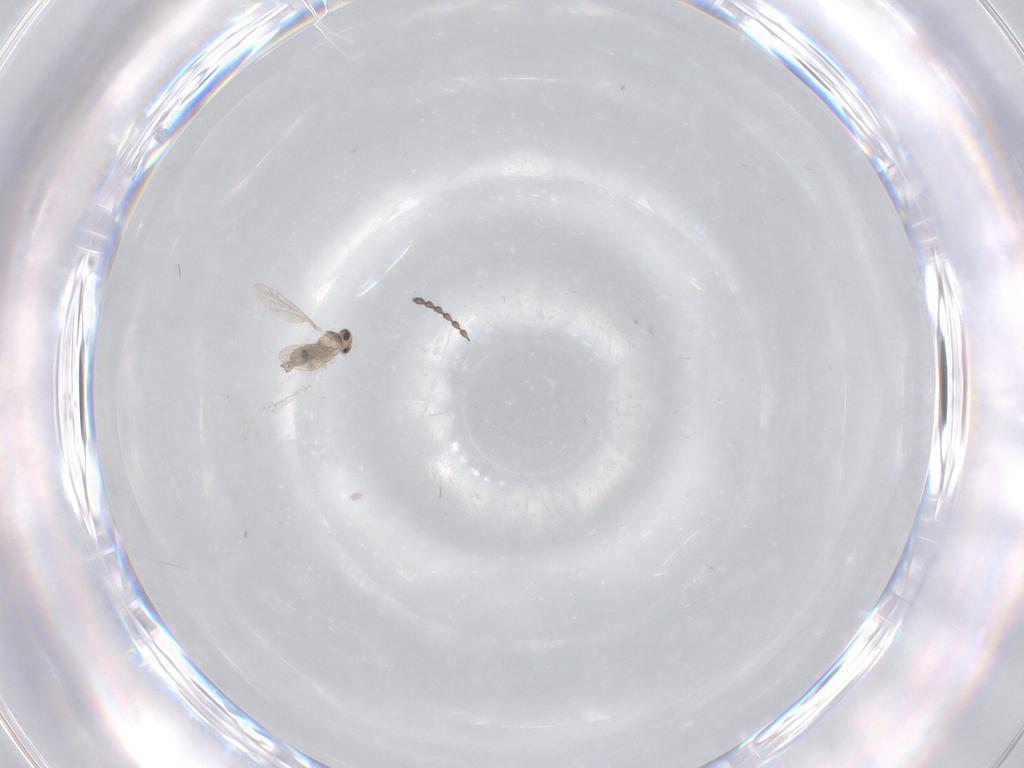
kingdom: Animalia
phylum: Arthropoda
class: Insecta
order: Diptera
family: Cecidomyiidae
